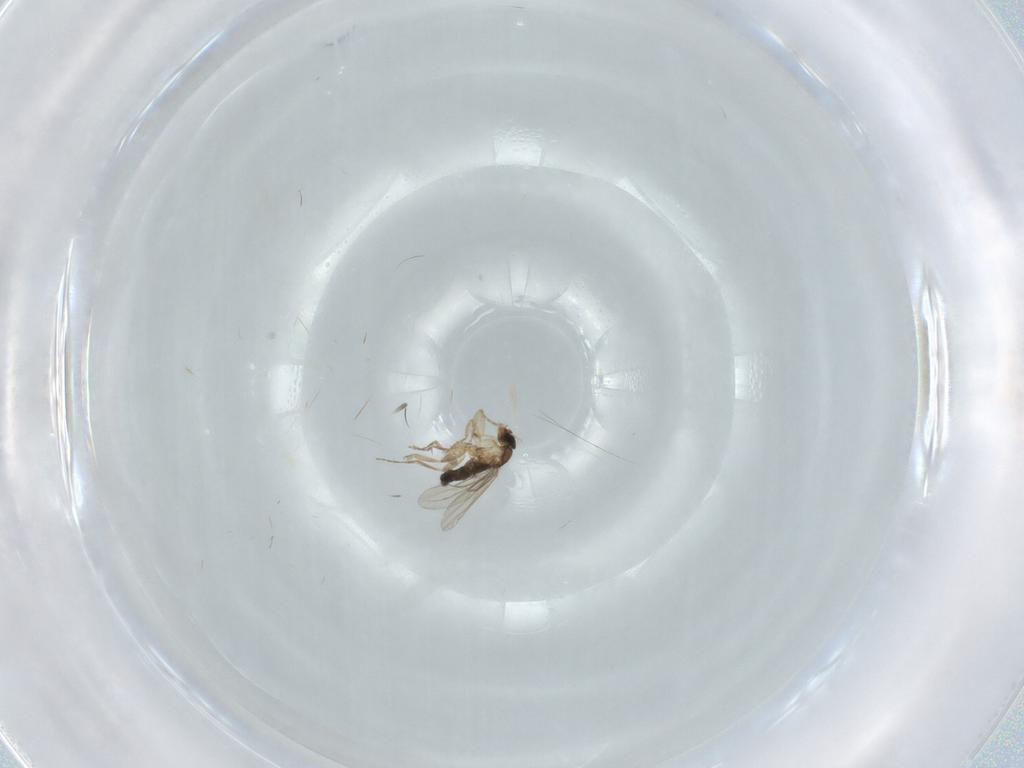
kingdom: Animalia
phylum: Arthropoda
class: Insecta
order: Diptera
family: Phoridae
